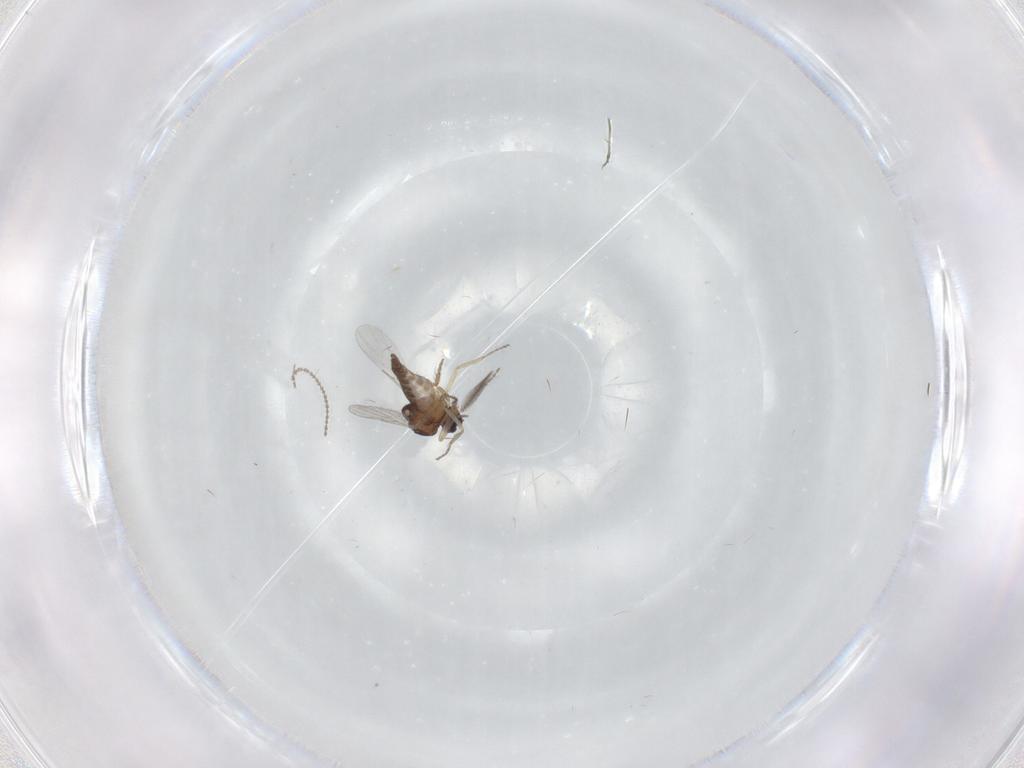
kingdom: Animalia
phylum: Arthropoda
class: Insecta
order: Diptera
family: Ceratopogonidae
